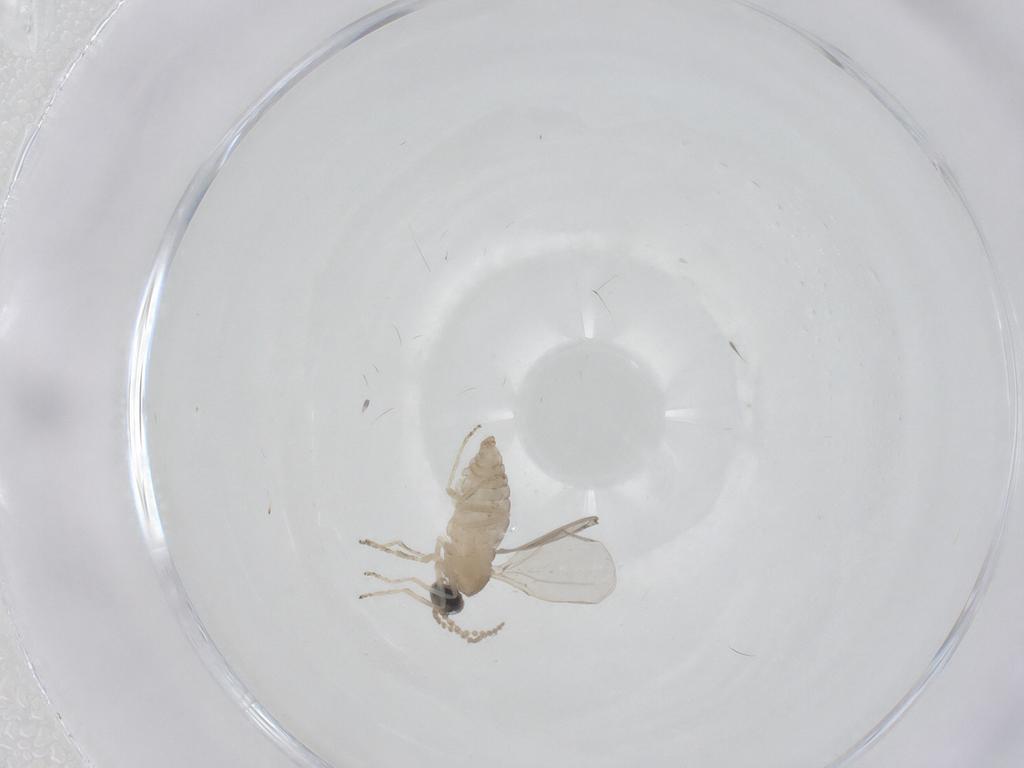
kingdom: Animalia
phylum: Arthropoda
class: Insecta
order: Diptera
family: Cecidomyiidae
